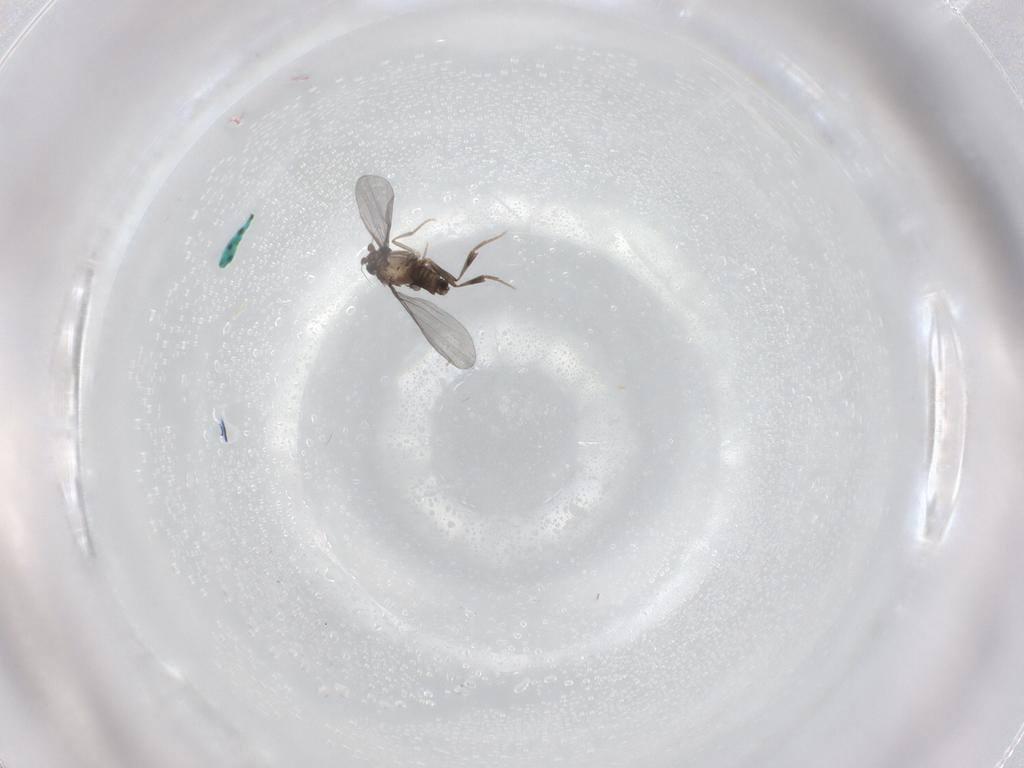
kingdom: Animalia
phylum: Arthropoda
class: Insecta
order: Diptera
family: Phoridae
